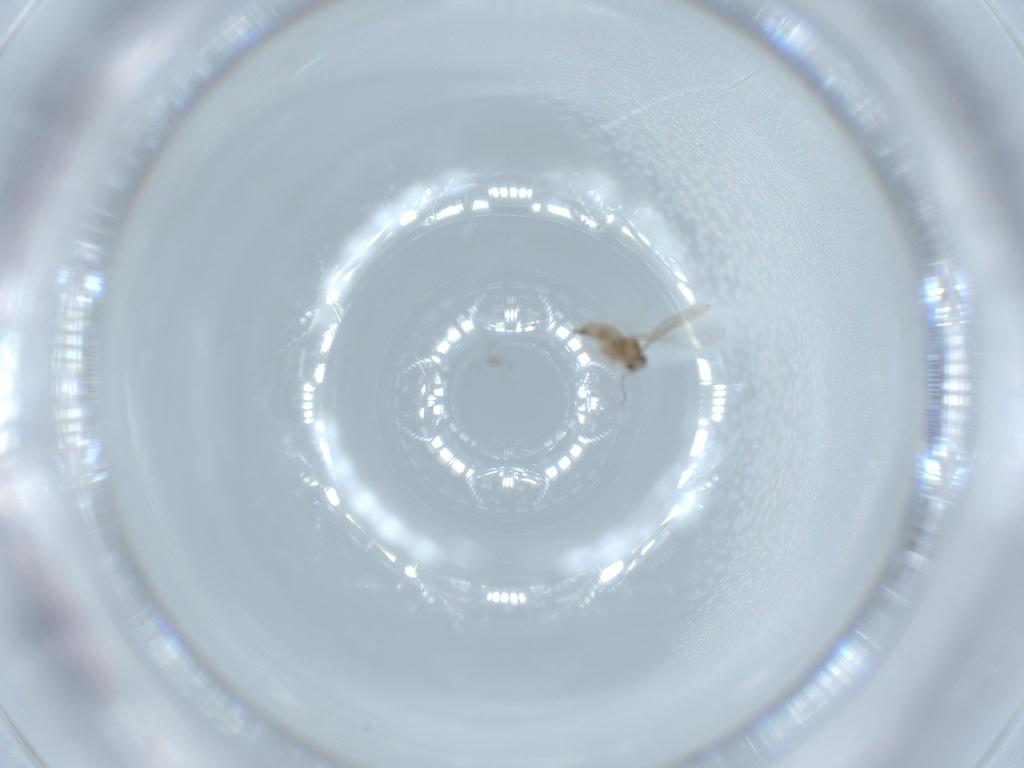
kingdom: Animalia
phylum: Arthropoda
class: Insecta
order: Diptera
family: Cecidomyiidae
